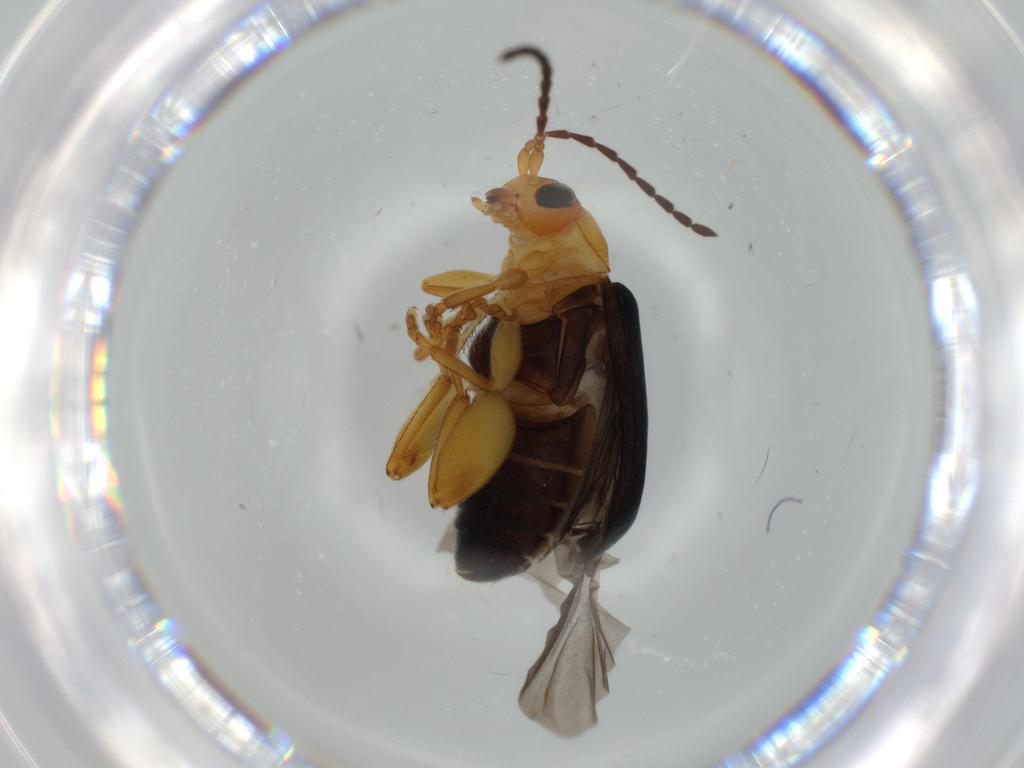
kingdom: Animalia
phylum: Arthropoda
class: Insecta
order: Coleoptera
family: Chrysomelidae
